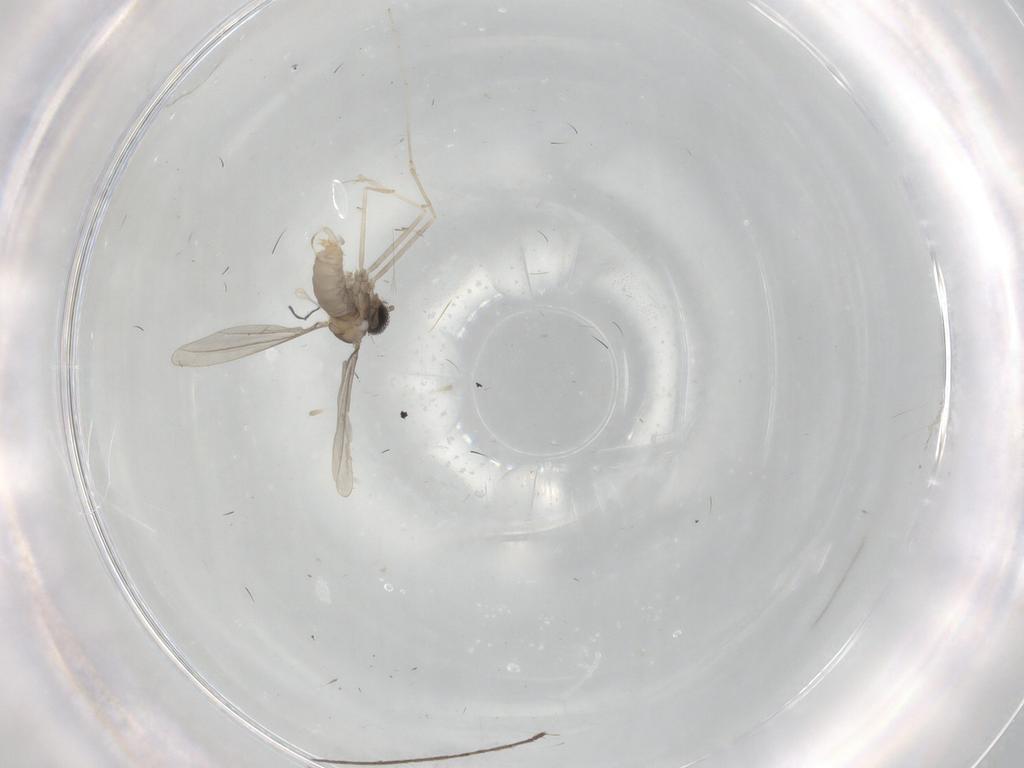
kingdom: Animalia
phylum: Arthropoda
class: Insecta
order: Diptera
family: Cecidomyiidae
